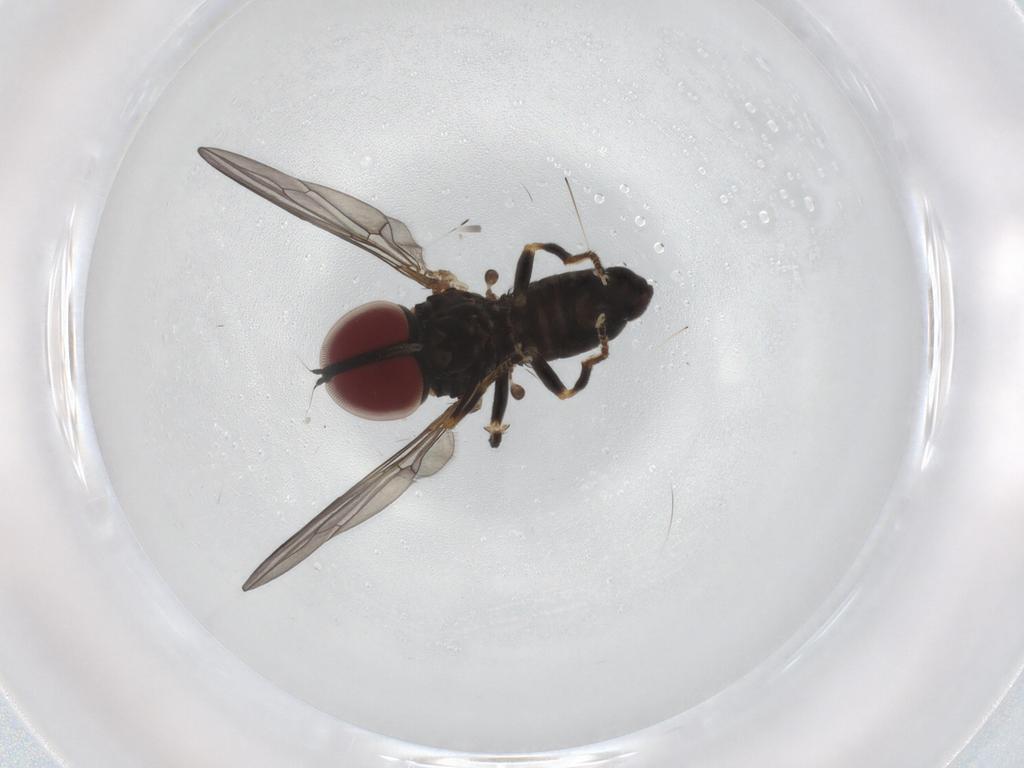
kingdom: Animalia
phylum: Arthropoda
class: Insecta
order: Diptera
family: Pipunculidae
